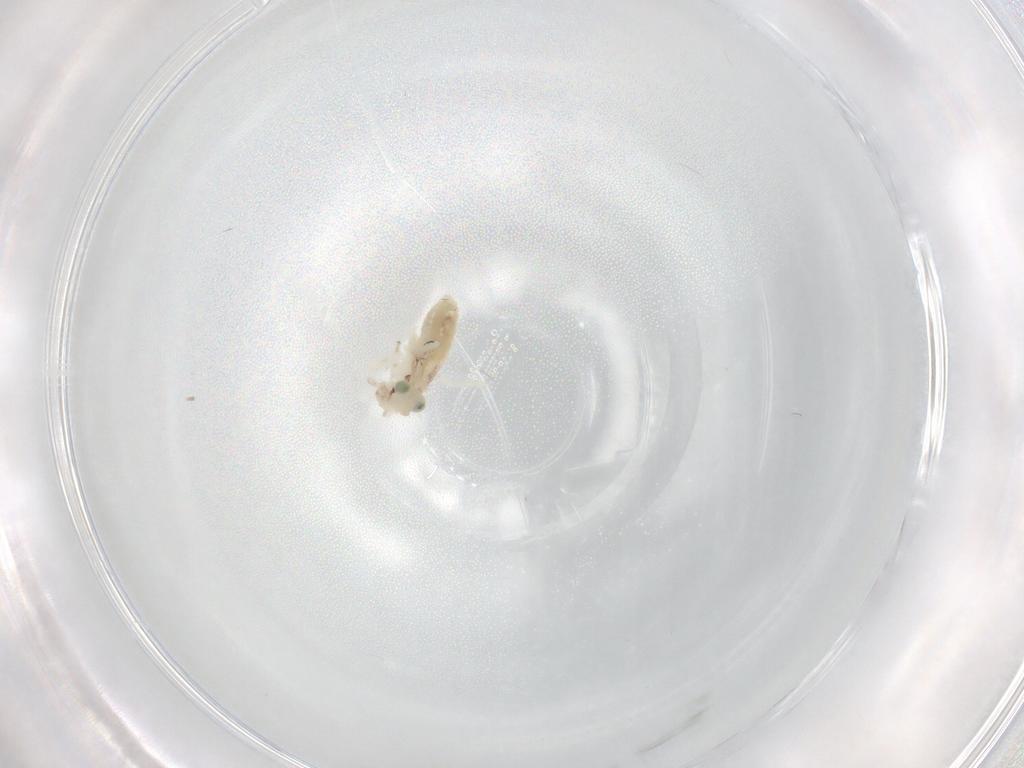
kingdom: Animalia
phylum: Arthropoda
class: Insecta
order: Psocodea
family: Lepidopsocidae
